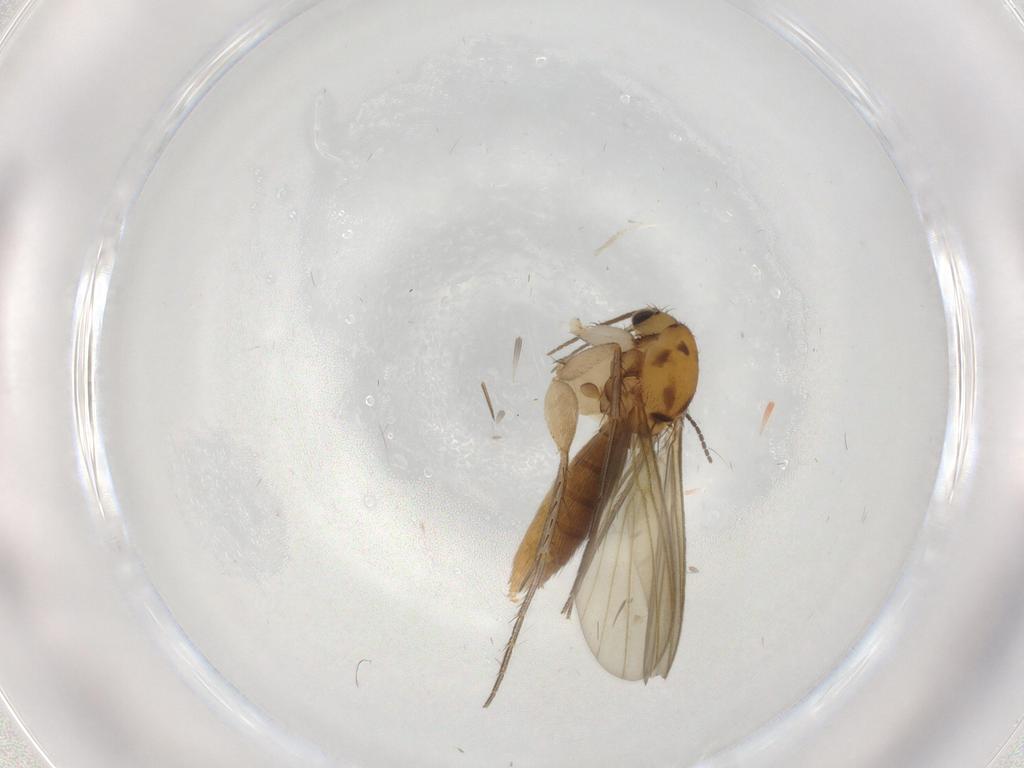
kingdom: Animalia
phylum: Arthropoda
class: Insecta
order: Diptera
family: Mycetophilidae
